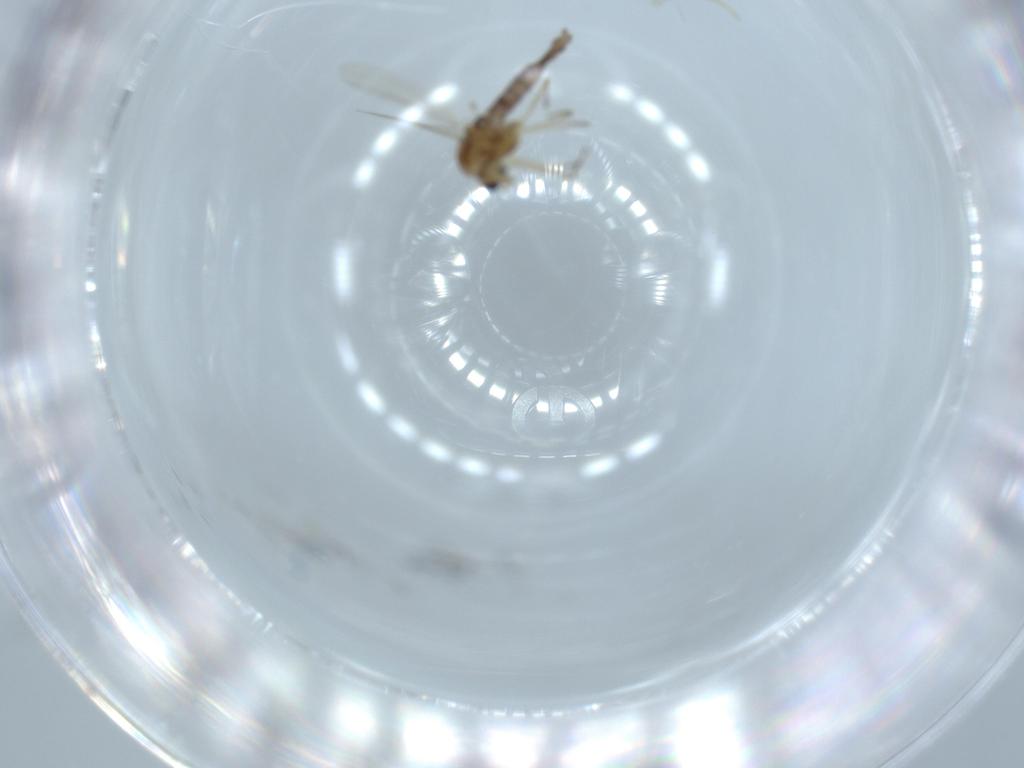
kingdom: Animalia
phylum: Arthropoda
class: Insecta
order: Diptera
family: Chironomidae
